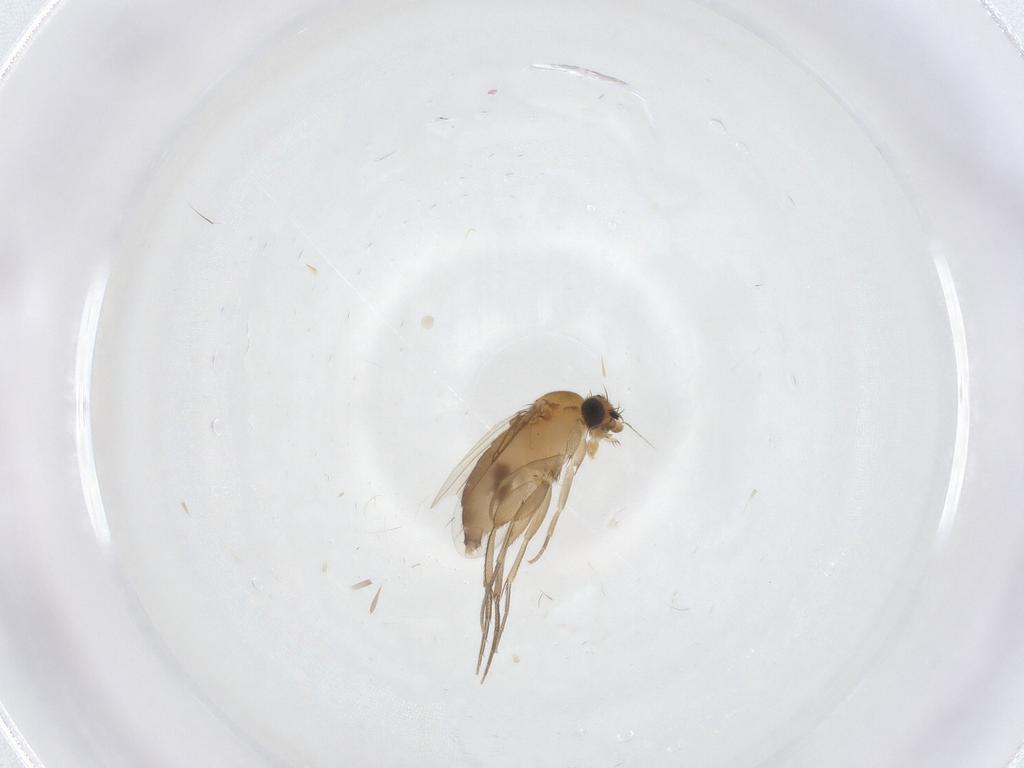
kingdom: Animalia
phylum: Arthropoda
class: Insecta
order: Diptera
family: Phoridae
